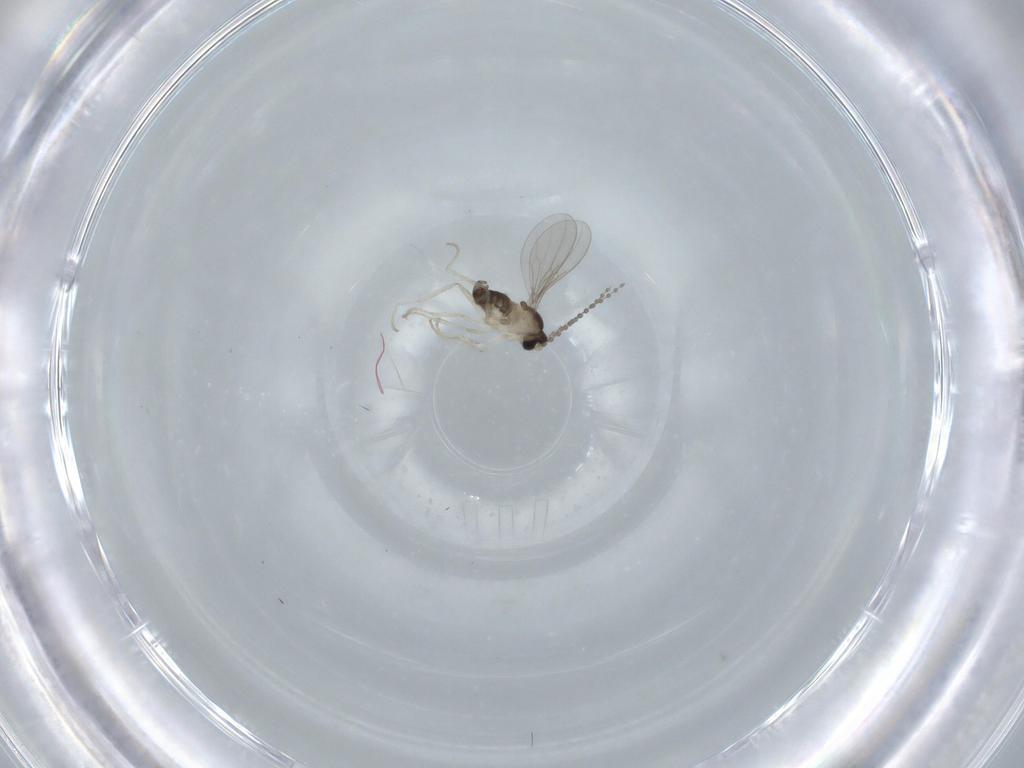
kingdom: Animalia
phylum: Arthropoda
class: Insecta
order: Diptera
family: Cecidomyiidae
